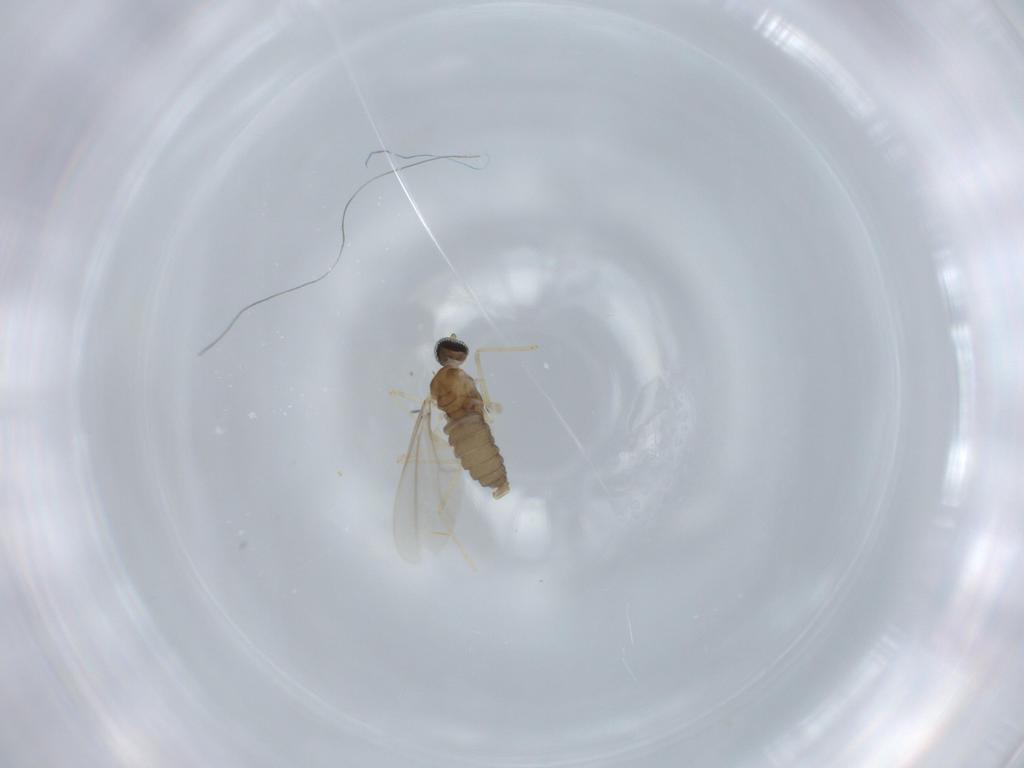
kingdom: Animalia
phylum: Arthropoda
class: Insecta
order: Diptera
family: Cecidomyiidae
